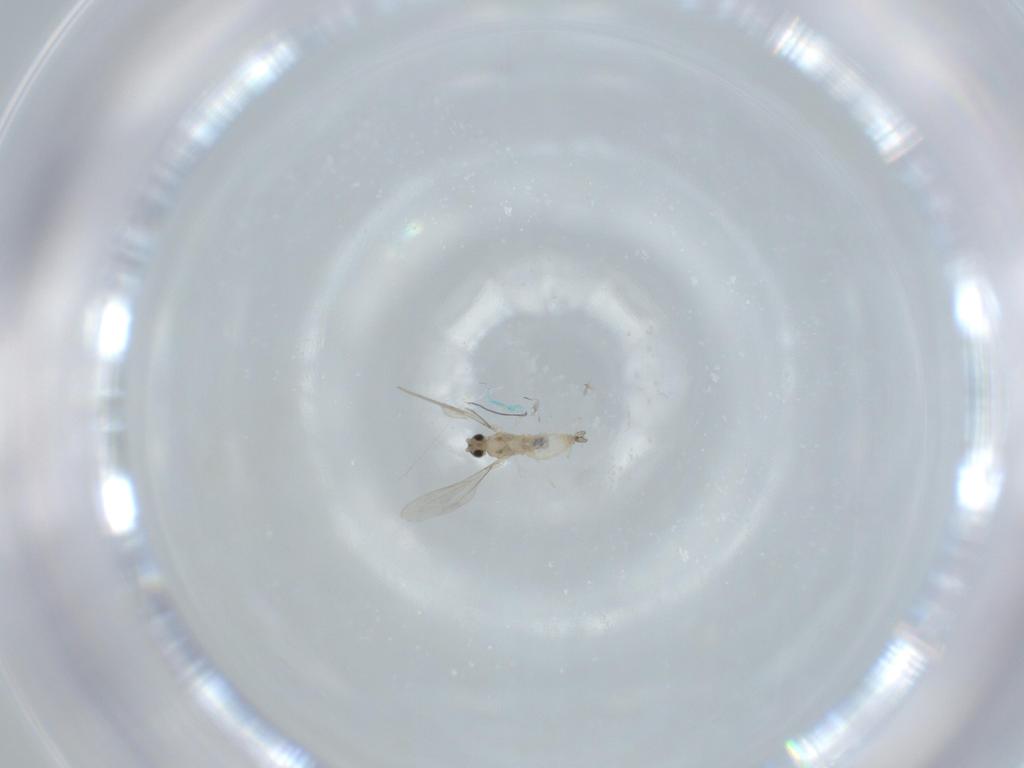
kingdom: Animalia
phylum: Arthropoda
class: Insecta
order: Diptera
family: Cecidomyiidae
